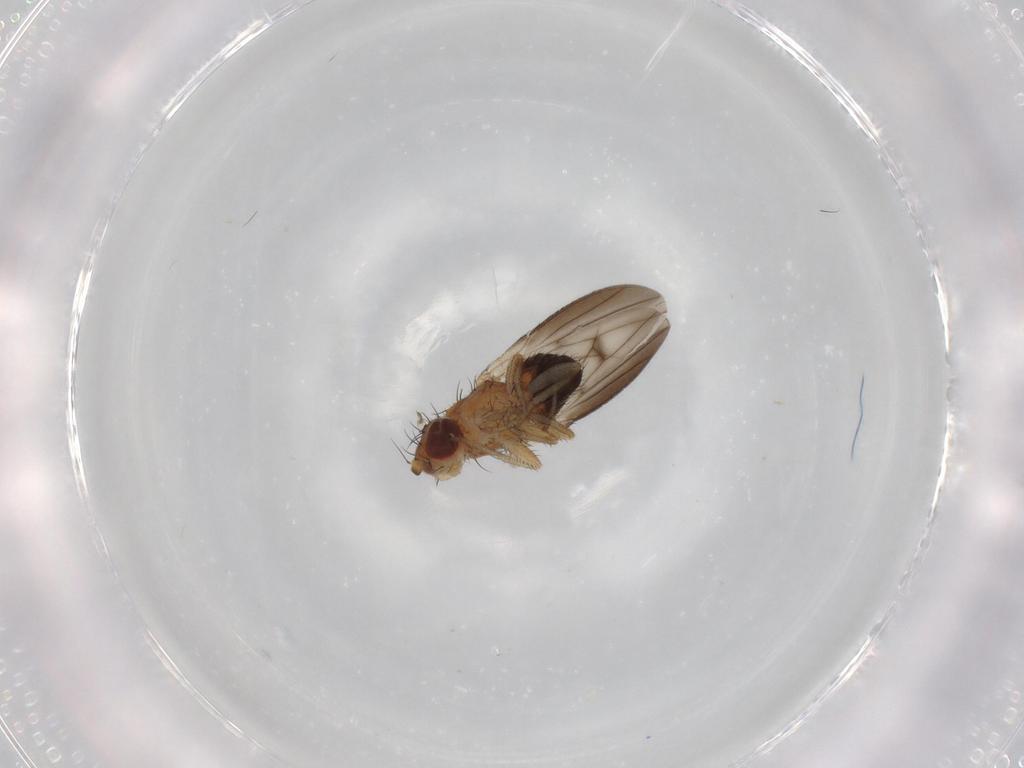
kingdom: Animalia
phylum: Arthropoda
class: Insecta
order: Diptera
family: Heleomyzidae
